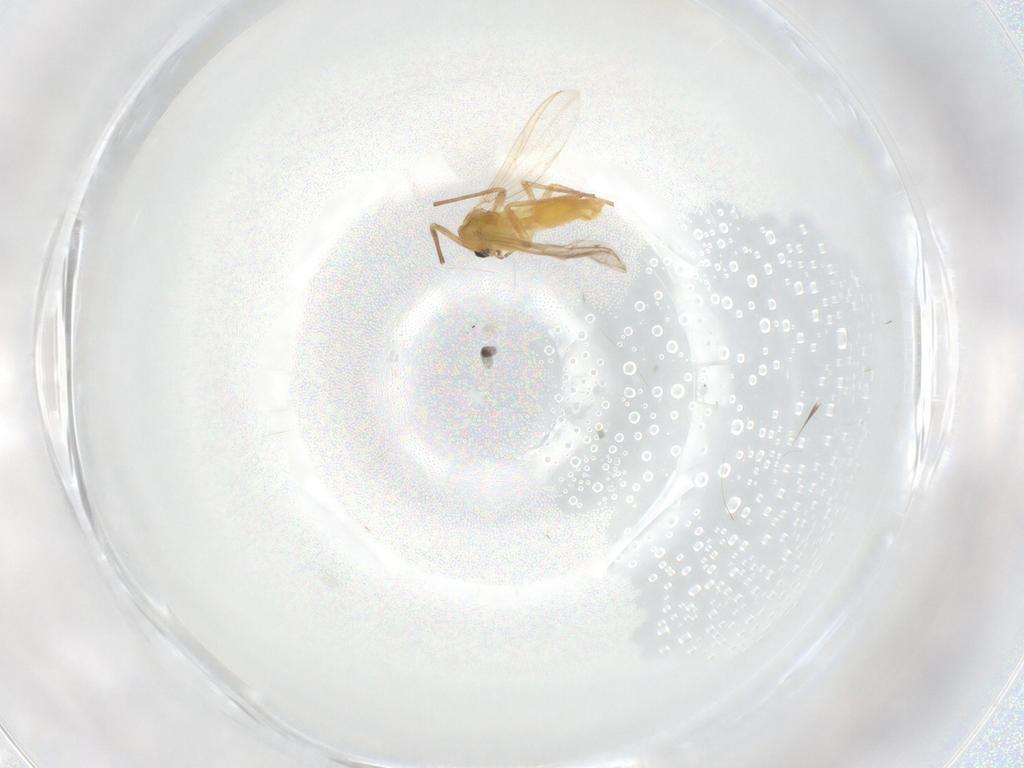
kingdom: Animalia
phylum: Arthropoda
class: Insecta
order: Diptera
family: Chironomidae
